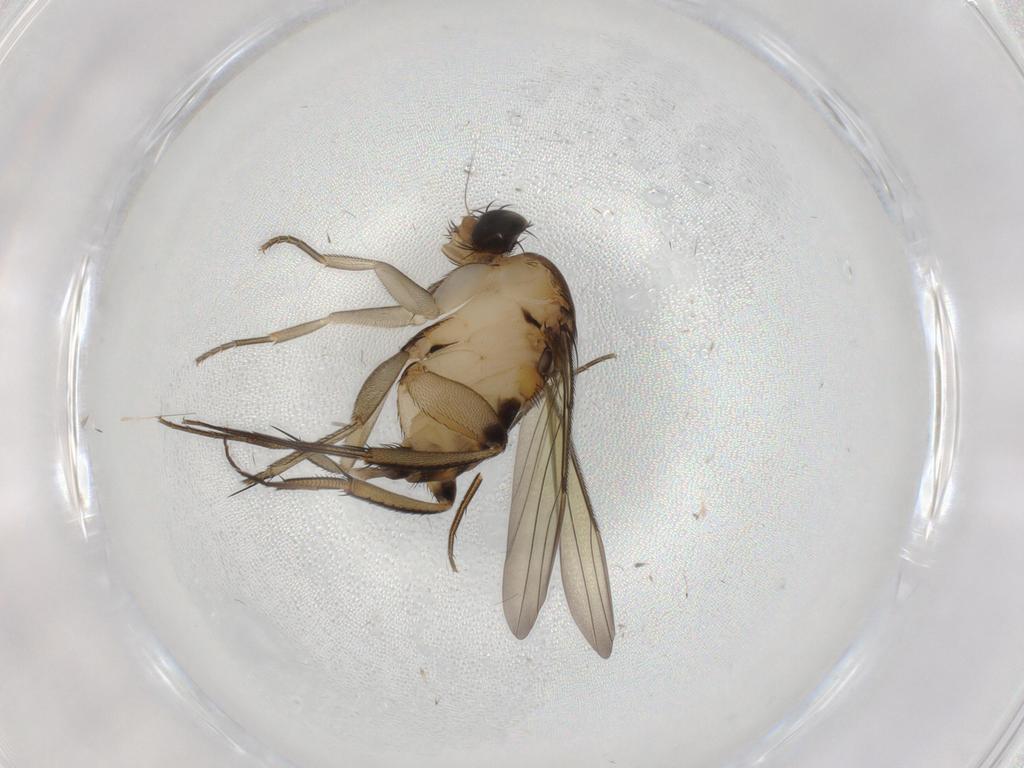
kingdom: Animalia
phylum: Arthropoda
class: Insecta
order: Diptera
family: Phoridae
